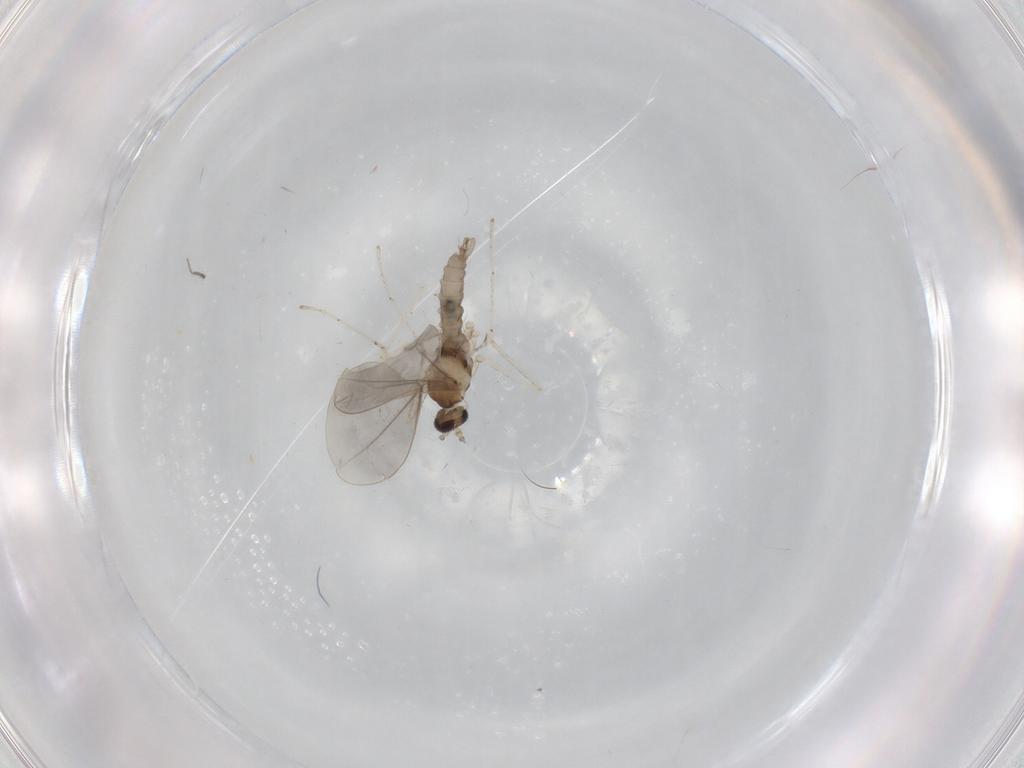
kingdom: Animalia
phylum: Arthropoda
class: Insecta
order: Diptera
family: Cecidomyiidae
